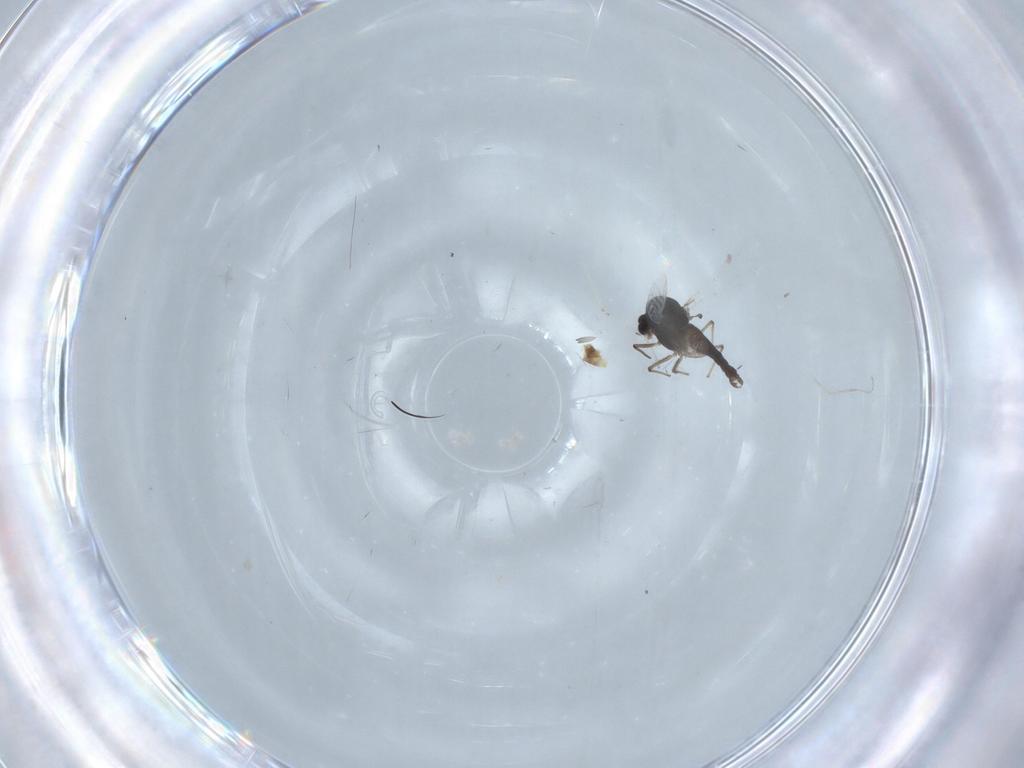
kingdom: Animalia
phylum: Arthropoda
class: Insecta
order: Diptera
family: Chironomidae
